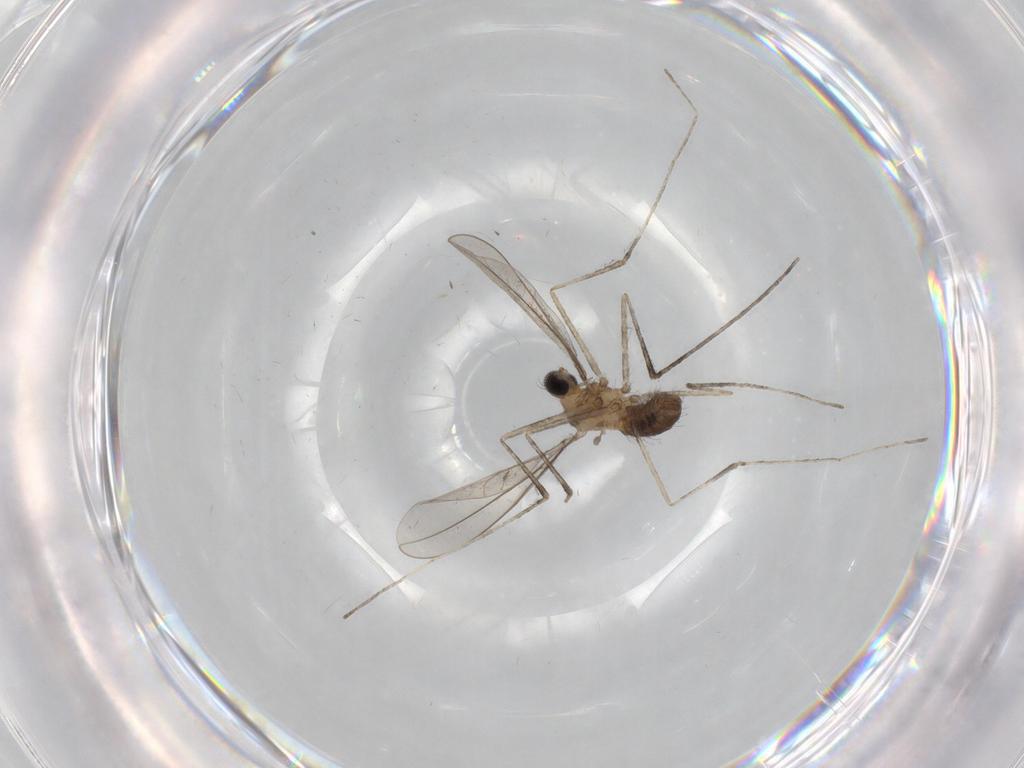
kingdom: Animalia
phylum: Arthropoda
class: Insecta
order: Diptera
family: Cecidomyiidae
